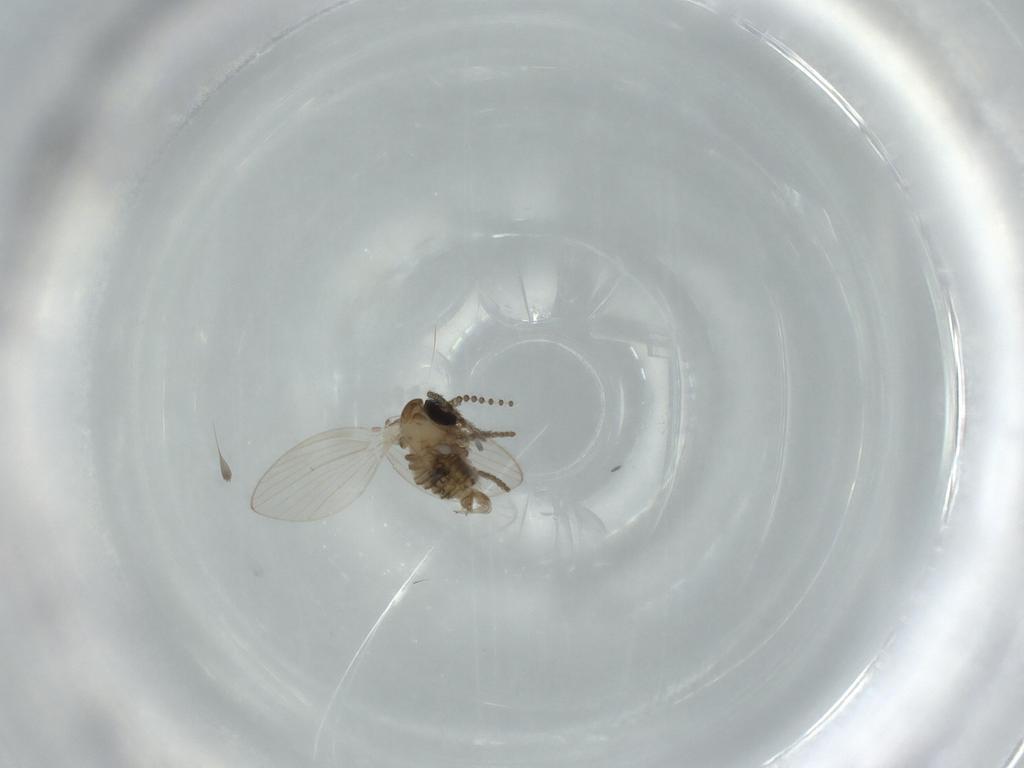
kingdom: Animalia
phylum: Arthropoda
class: Insecta
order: Diptera
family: Psychodidae
